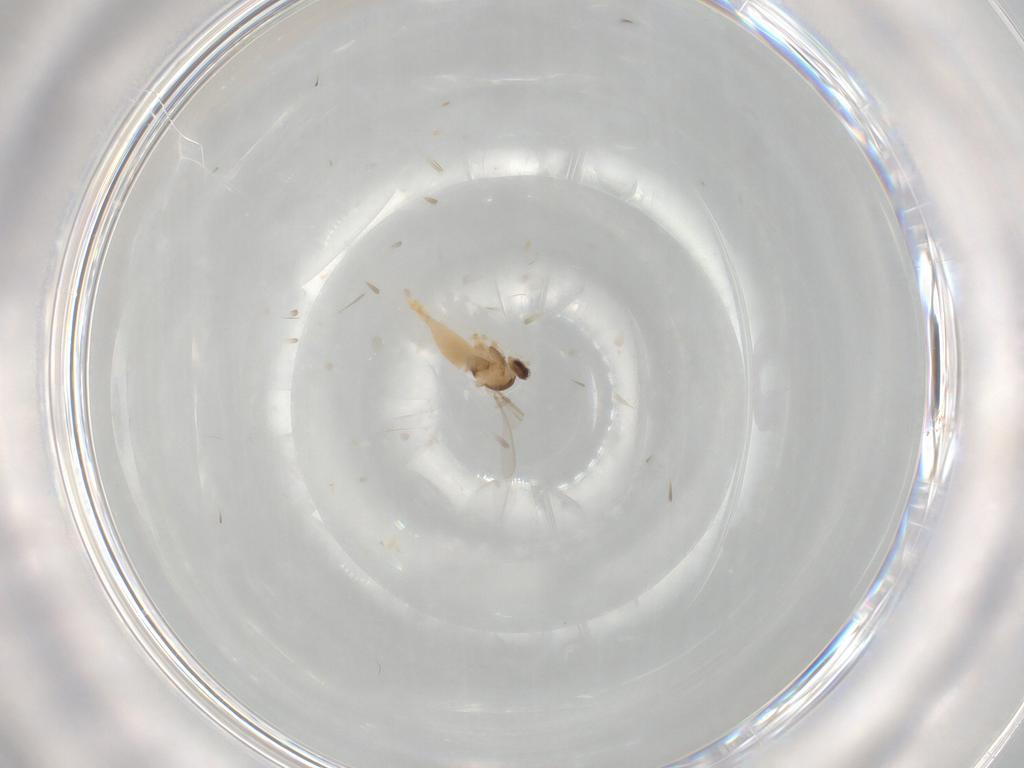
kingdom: Animalia
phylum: Arthropoda
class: Insecta
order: Diptera
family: Cecidomyiidae
